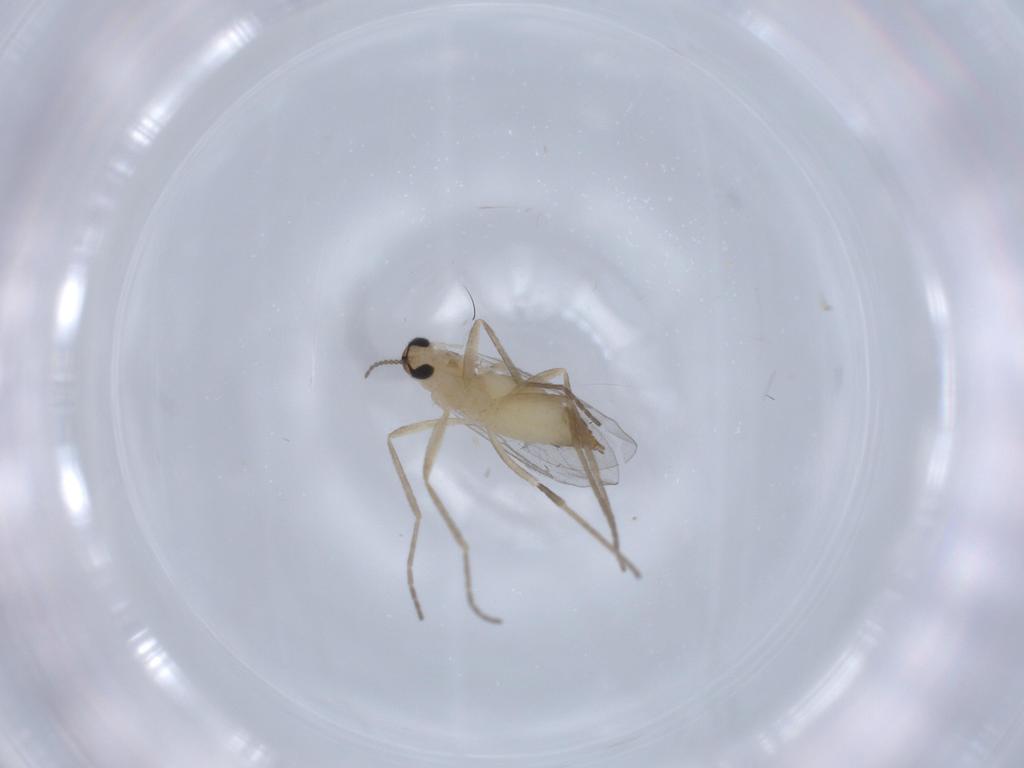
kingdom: Animalia
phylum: Arthropoda
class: Insecta
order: Diptera
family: Cecidomyiidae
